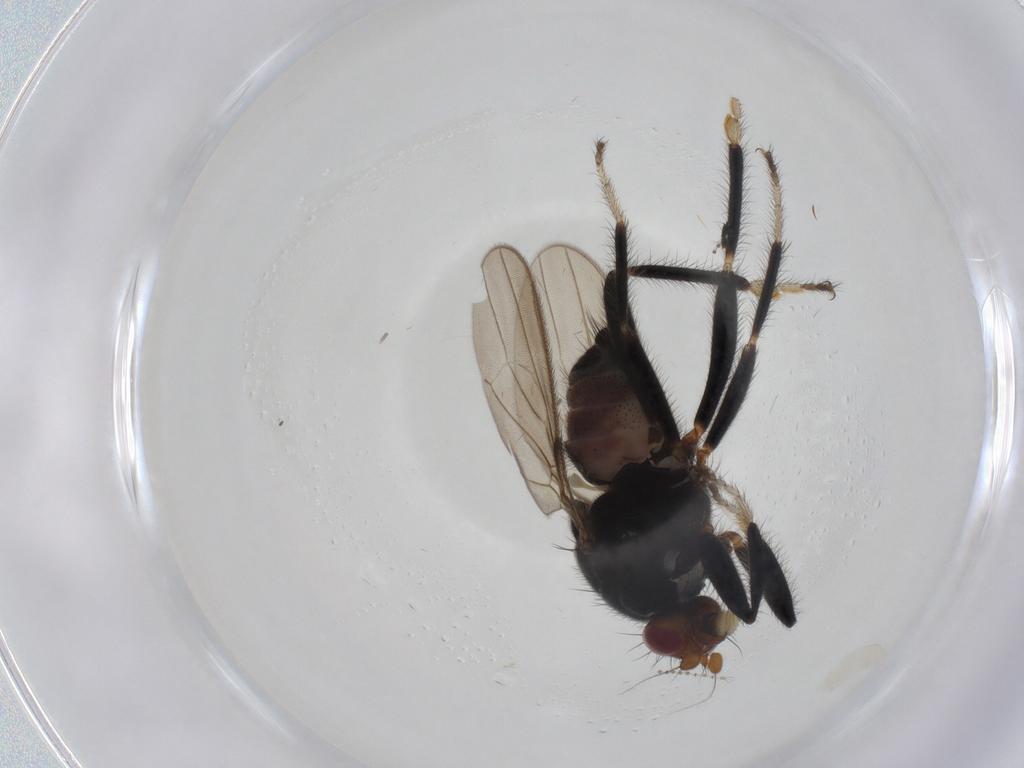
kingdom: Animalia
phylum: Arthropoda
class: Insecta
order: Diptera
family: Sphaeroceridae
